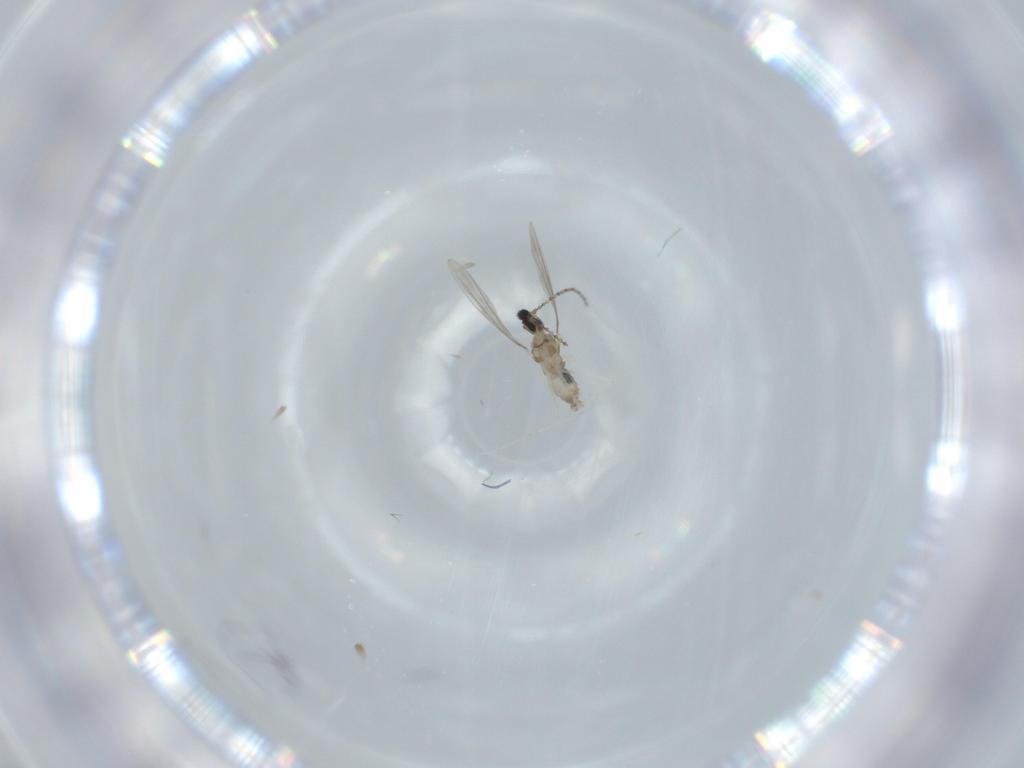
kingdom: Animalia
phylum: Arthropoda
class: Insecta
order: Diptera
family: Cecidomyiidae
